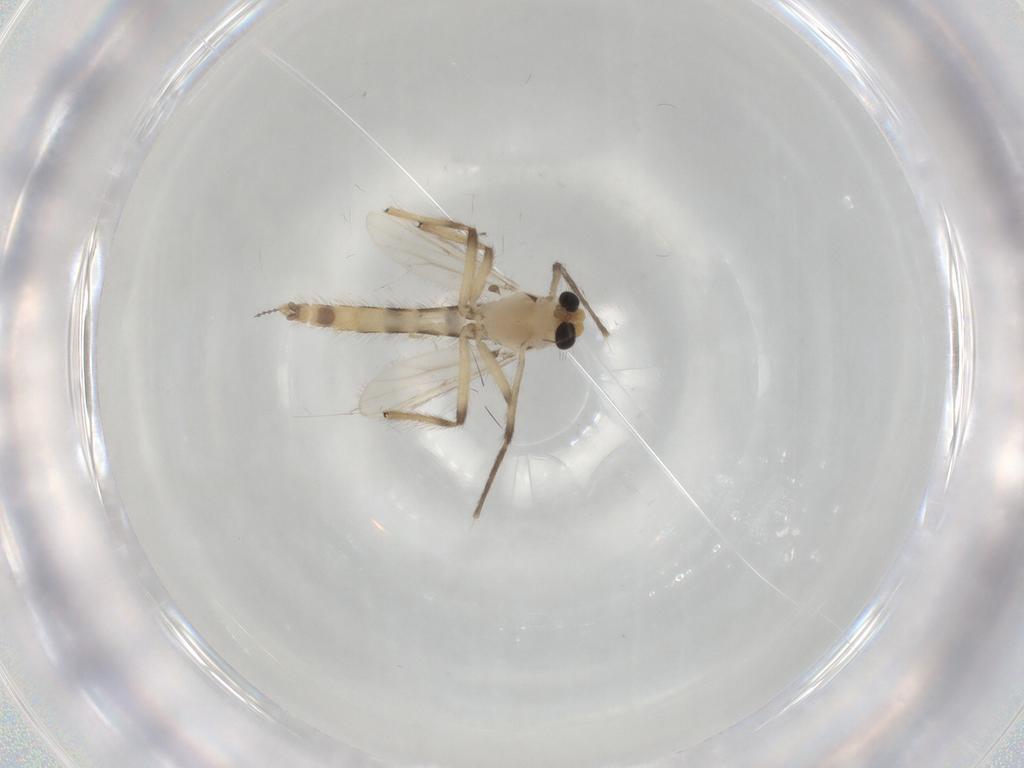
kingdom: Animalia
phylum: Arthropoda
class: Insecta
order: Diptera
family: Chironomidae
